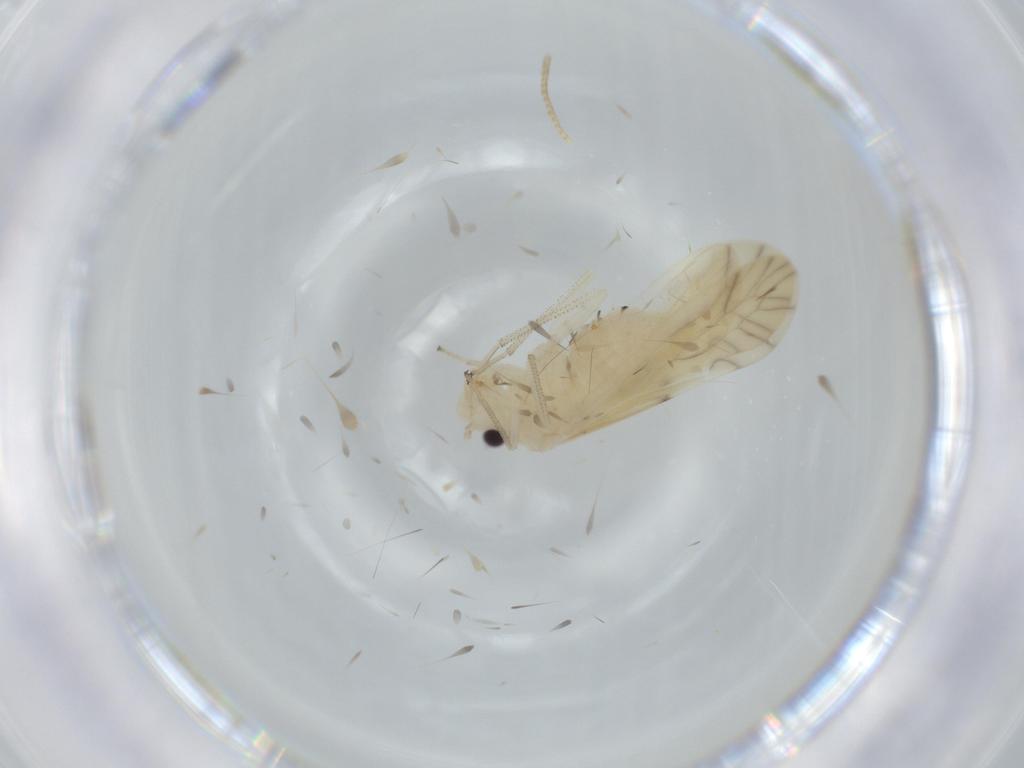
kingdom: Animalia
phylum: Arthropoda
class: Insecta
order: Psocodea
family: Caeciliusidae
